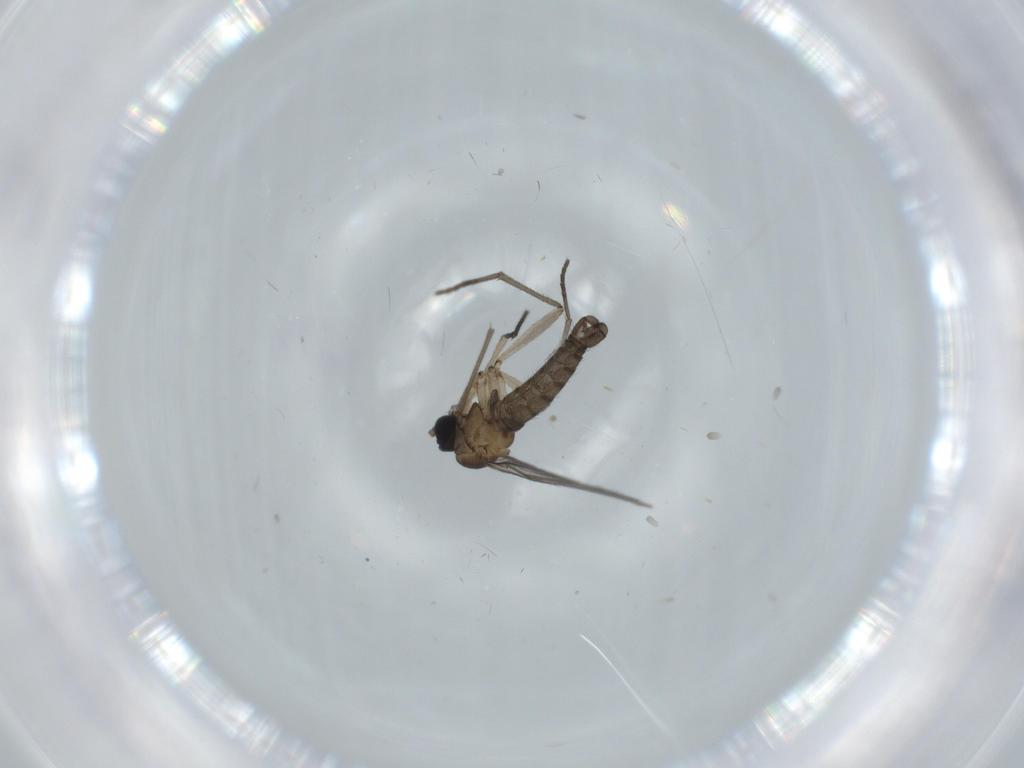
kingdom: Animalia
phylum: Arthropoda
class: Insecta
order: Diptera
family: Sciaridae
